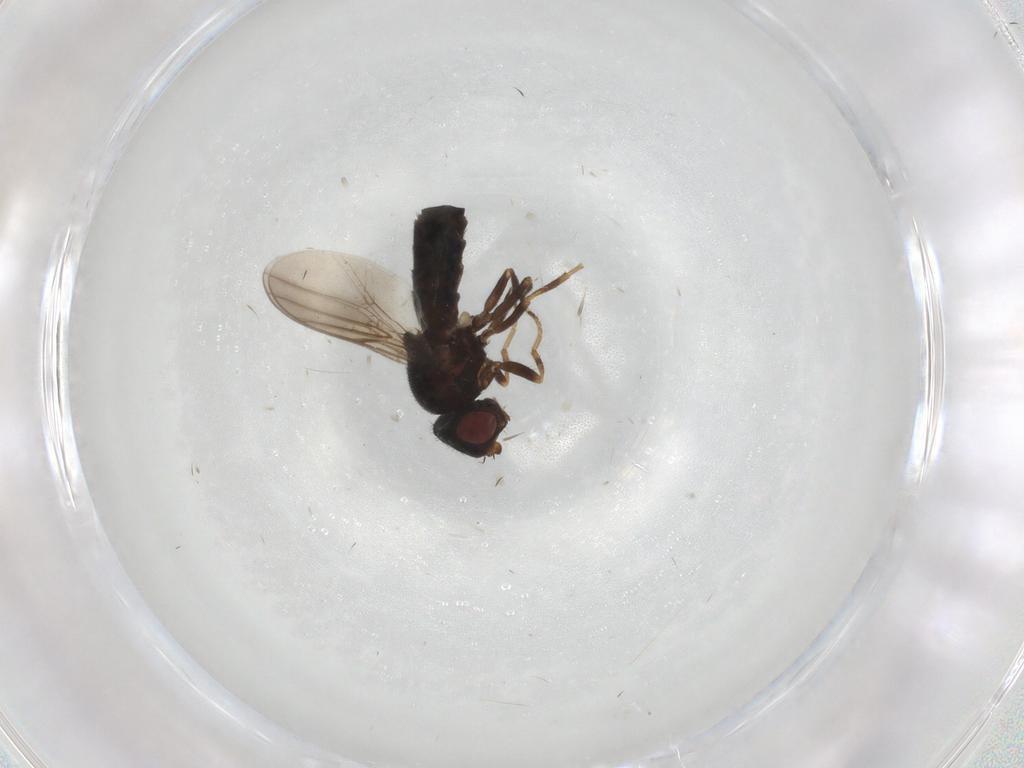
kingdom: Animalia
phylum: Arthropoda
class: Insecta
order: Diptera
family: Chloropidae
